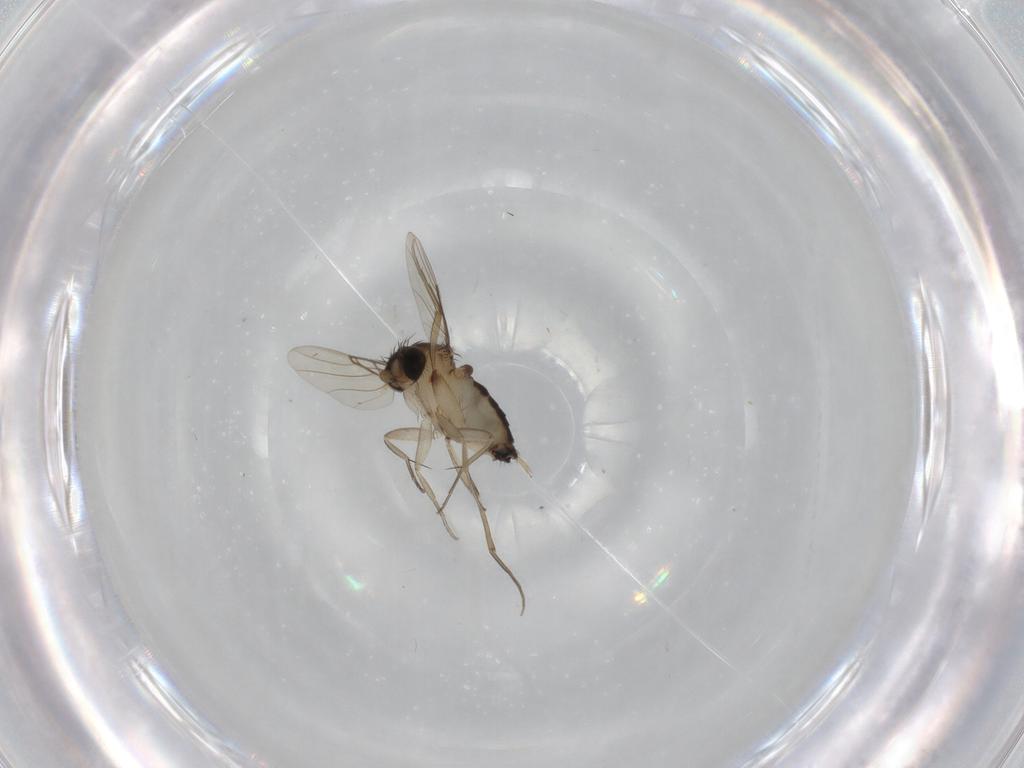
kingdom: Animalia
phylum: Arthropoda
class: Insecta
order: Diptera
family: Phoridae
